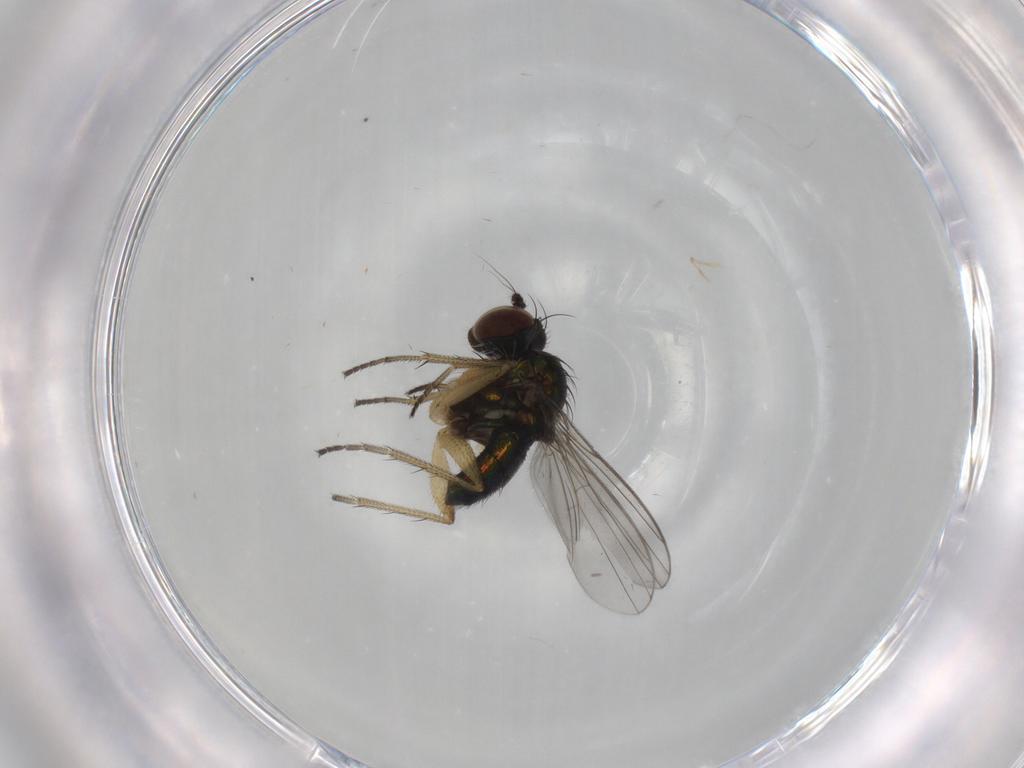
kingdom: Animalia
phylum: Arthropoda
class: Insecta
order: Diptera
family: Dolichopodidae
